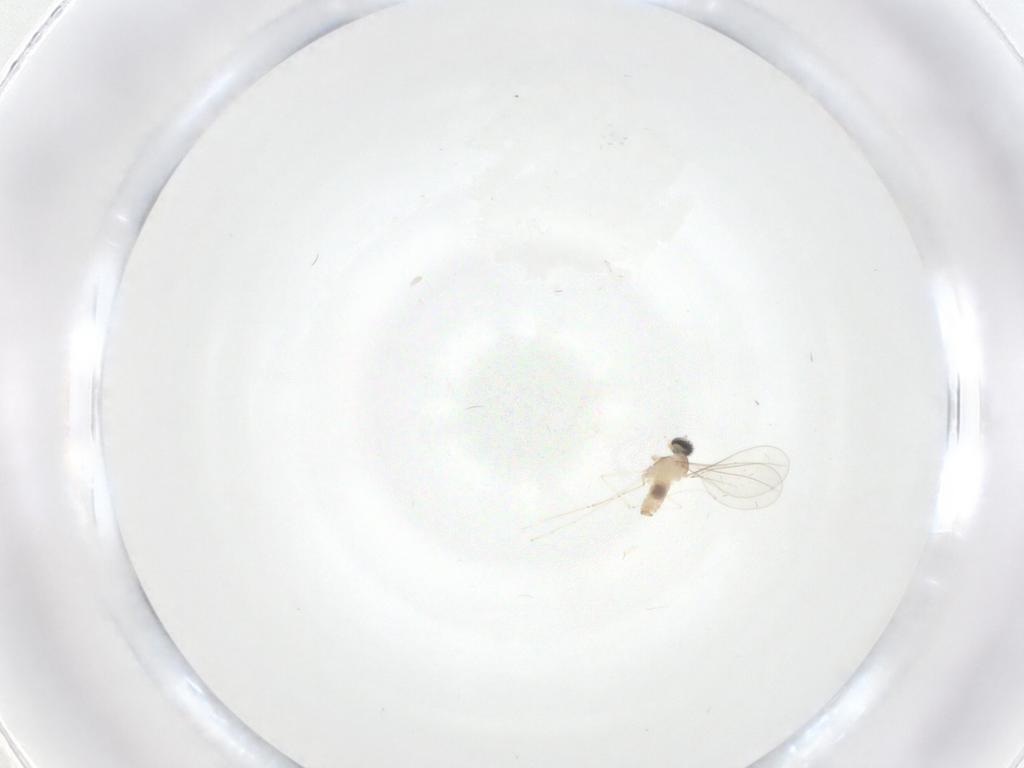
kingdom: Animalia
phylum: Arthropoda
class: Insecta
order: Diptera
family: Cecidomyiidae
